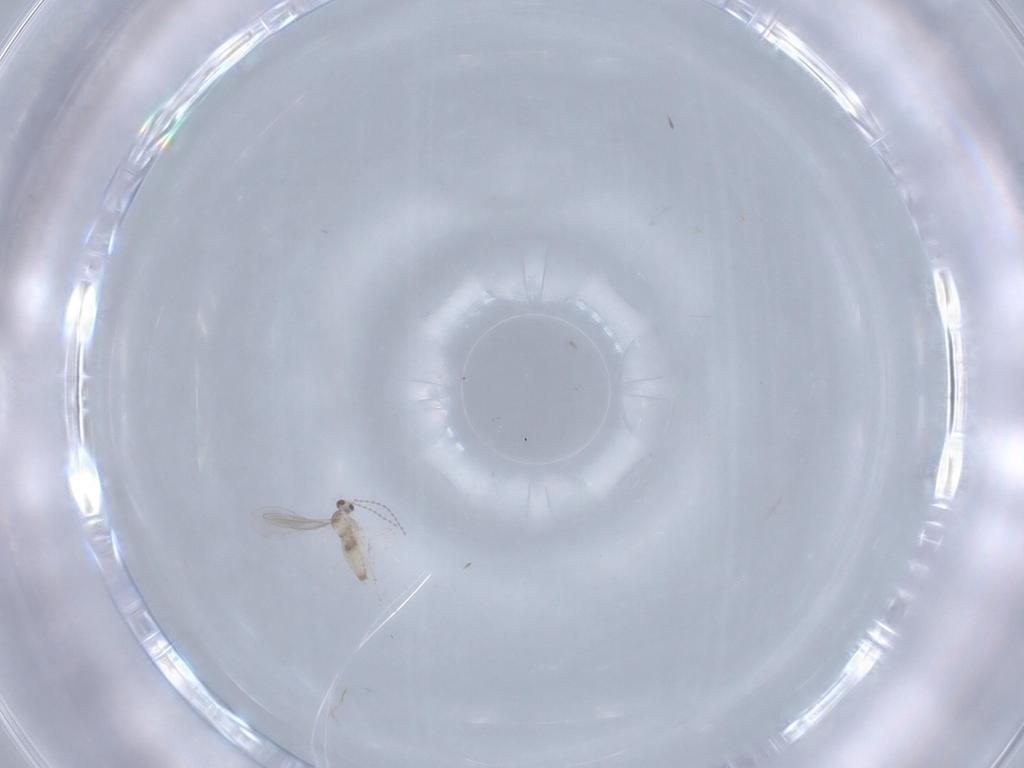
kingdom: Animalia
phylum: Arthropoda
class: Insecta
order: Diptera
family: Cecidomyiidae
